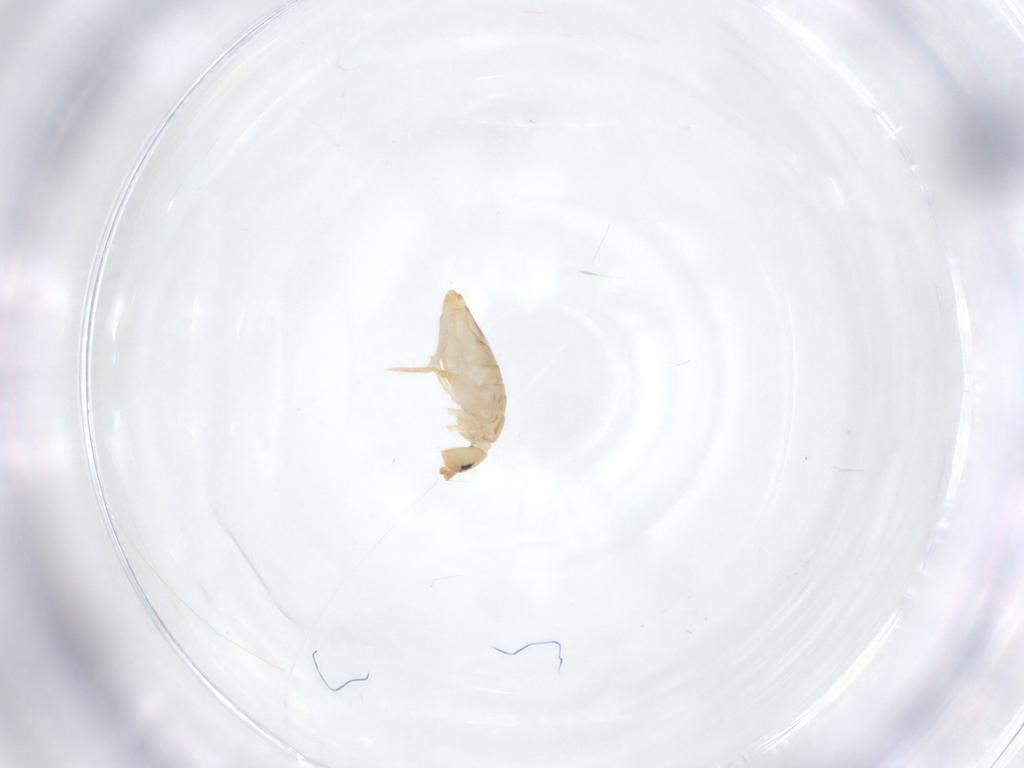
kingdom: Animalia
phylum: Arthropoda
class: Collembola
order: Entomobryomorpha
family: Entomobryidae
